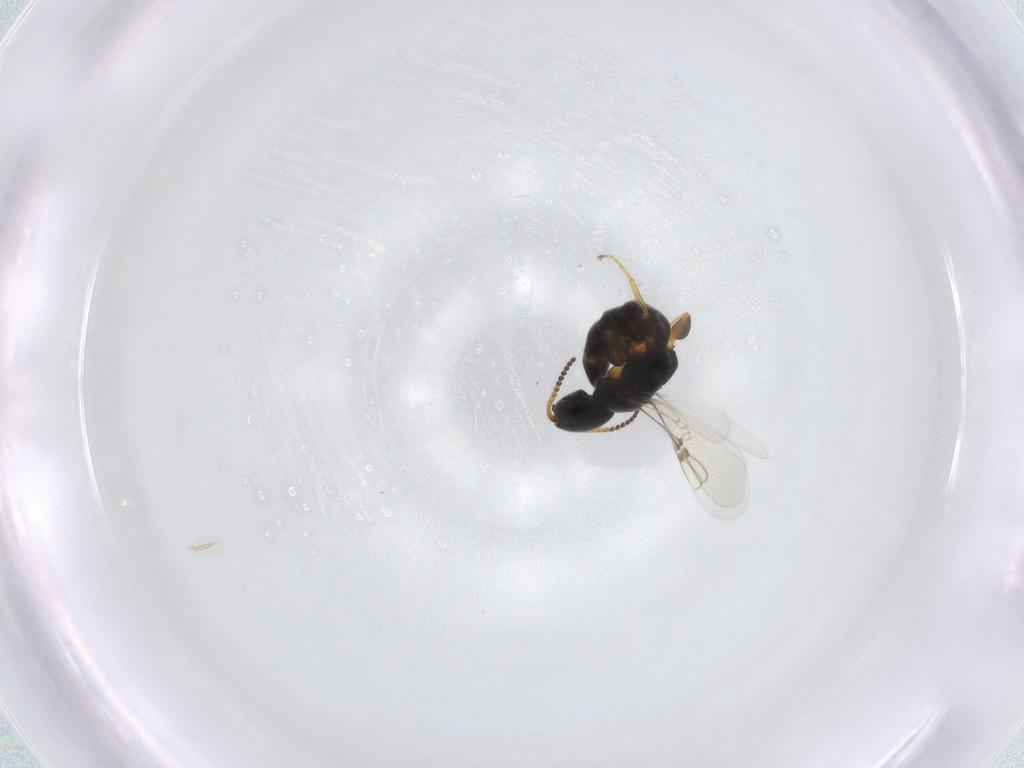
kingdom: Animalia
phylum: Arthropoda
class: Insecta
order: Hymenoptera
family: Bethylidae
